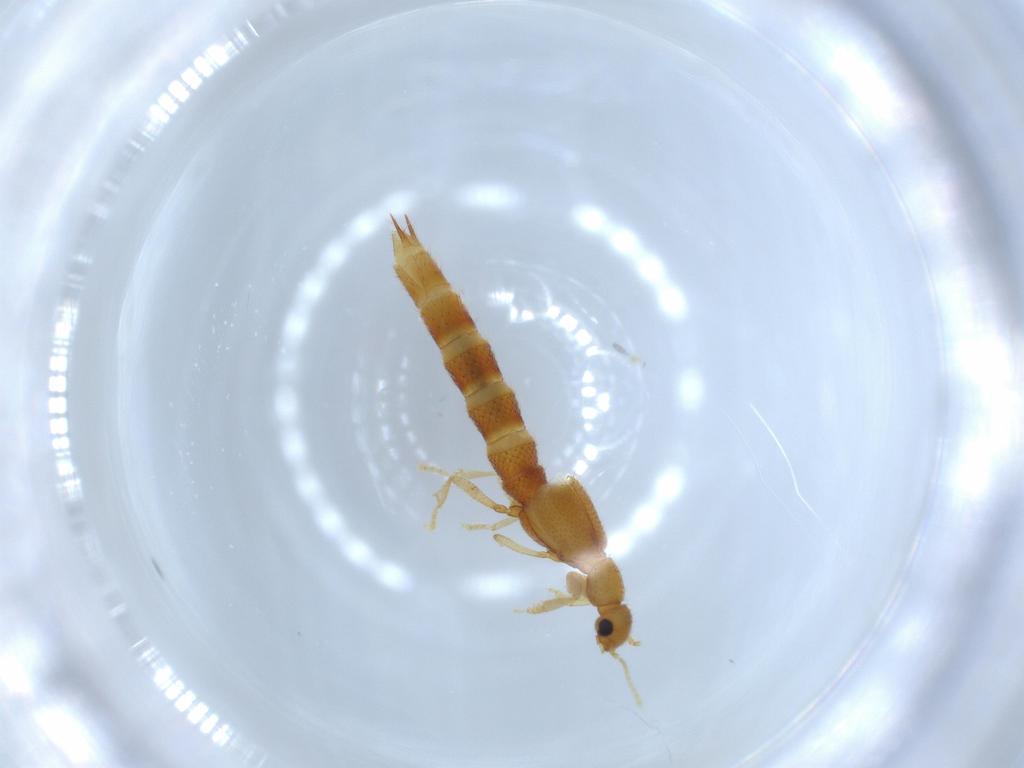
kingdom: Animalia
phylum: Arthropoda
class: Insecta
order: Coleoptera
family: Staphylinidae
